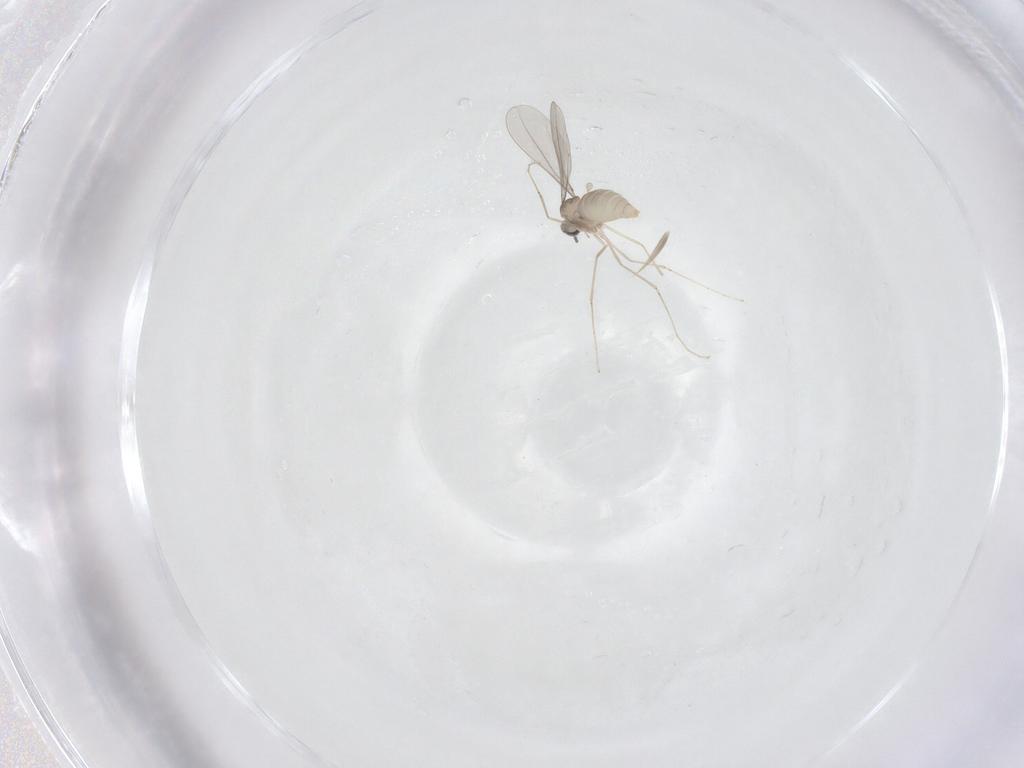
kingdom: Animalia
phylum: Arthropoda
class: Insecta
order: Diptera
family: Cecidomyiidae
